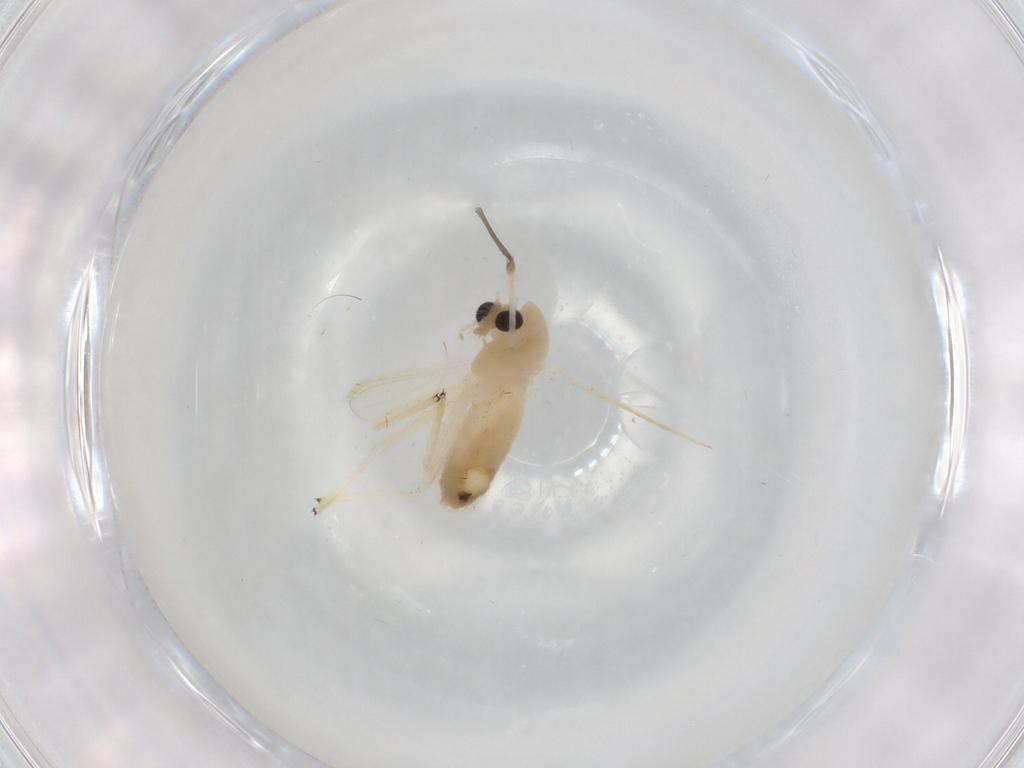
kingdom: Animalia
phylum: Arthropoda
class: Insecta
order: Diptera
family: Chironomidae
